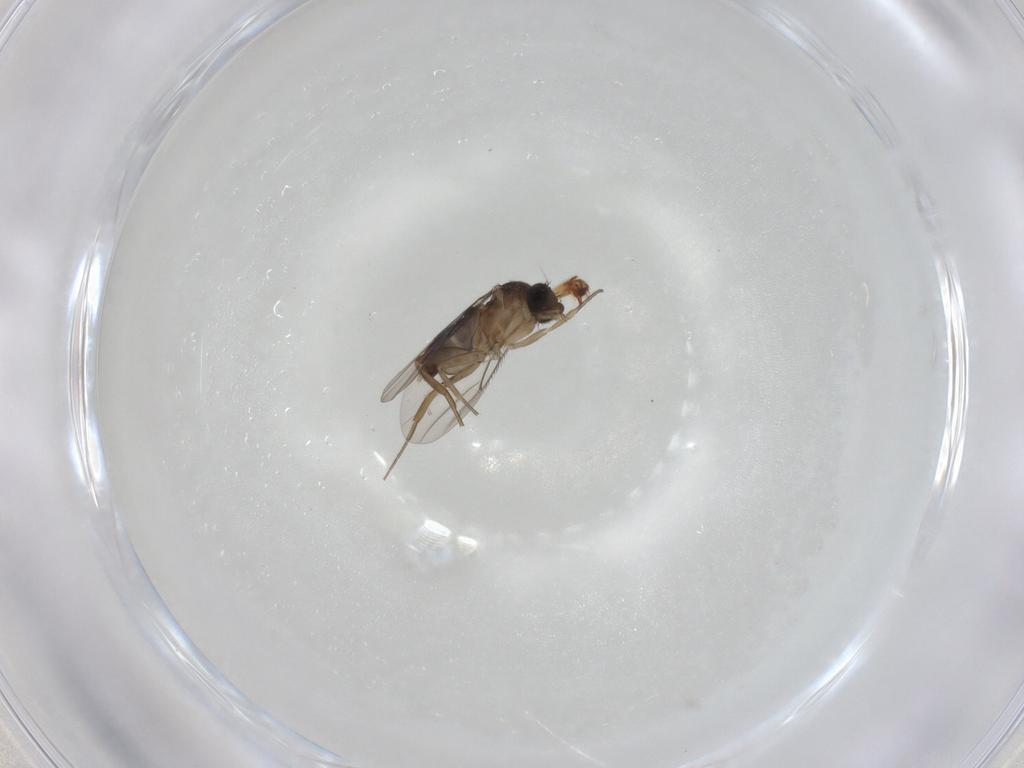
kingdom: Animalia
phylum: Arthropoda
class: Insecta
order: Diptera
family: Phoridae
